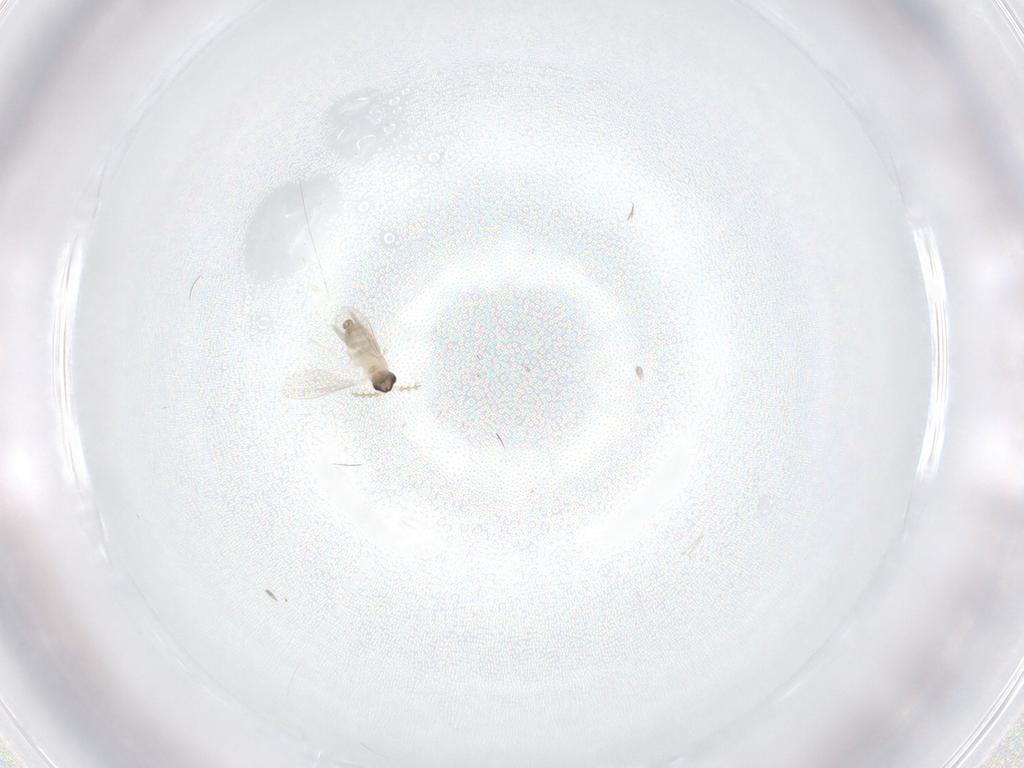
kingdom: Animalia
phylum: Arthropoda
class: Insecta
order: Diptera
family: Cecidomyiidae
